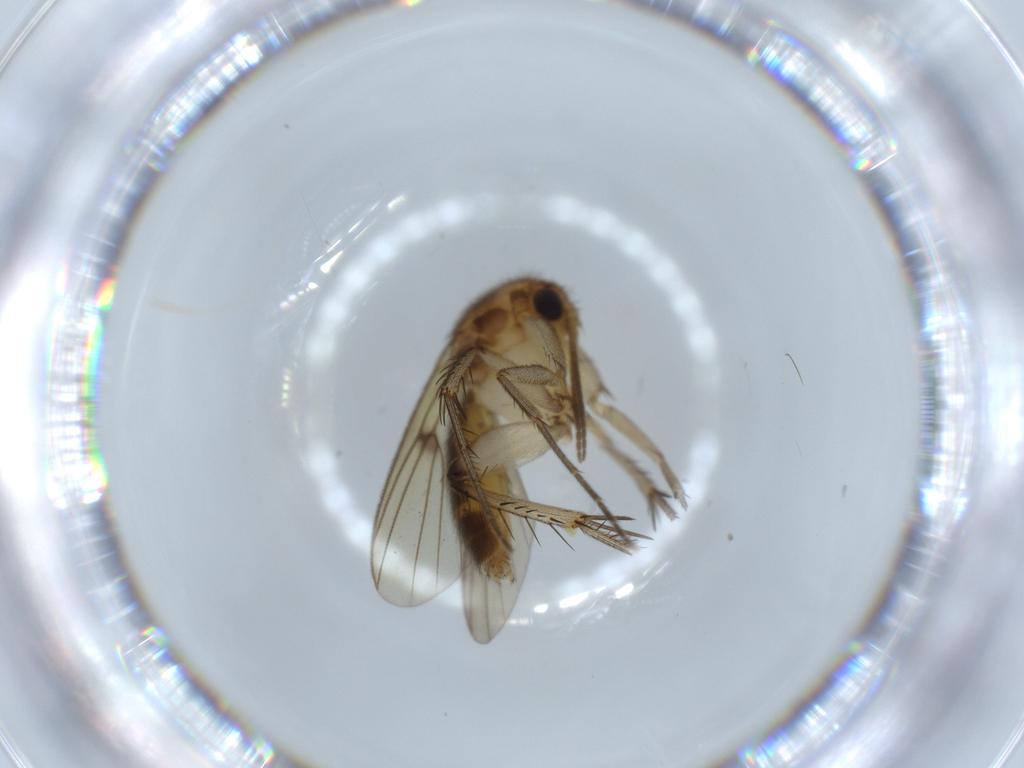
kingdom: Animalia
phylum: Arthropoda
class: Insecta
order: Diptera
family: Mycetophilidae
